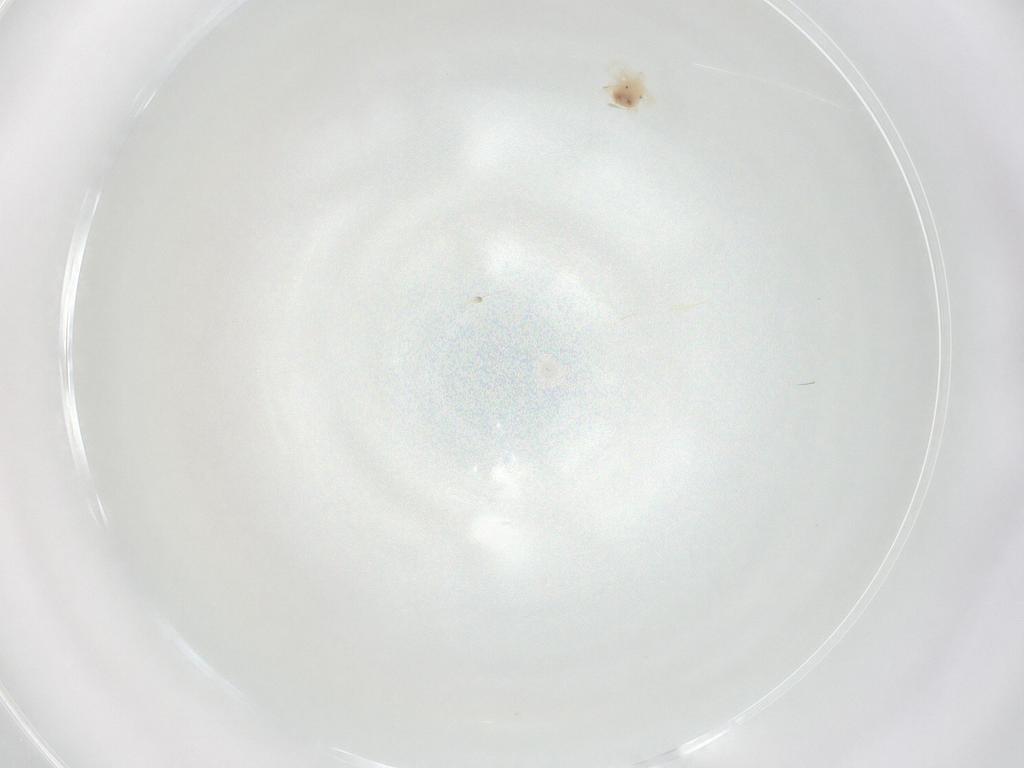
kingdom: Animalia
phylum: Arthropoda
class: Arachnida
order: Trombidiformes
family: Anystidae
